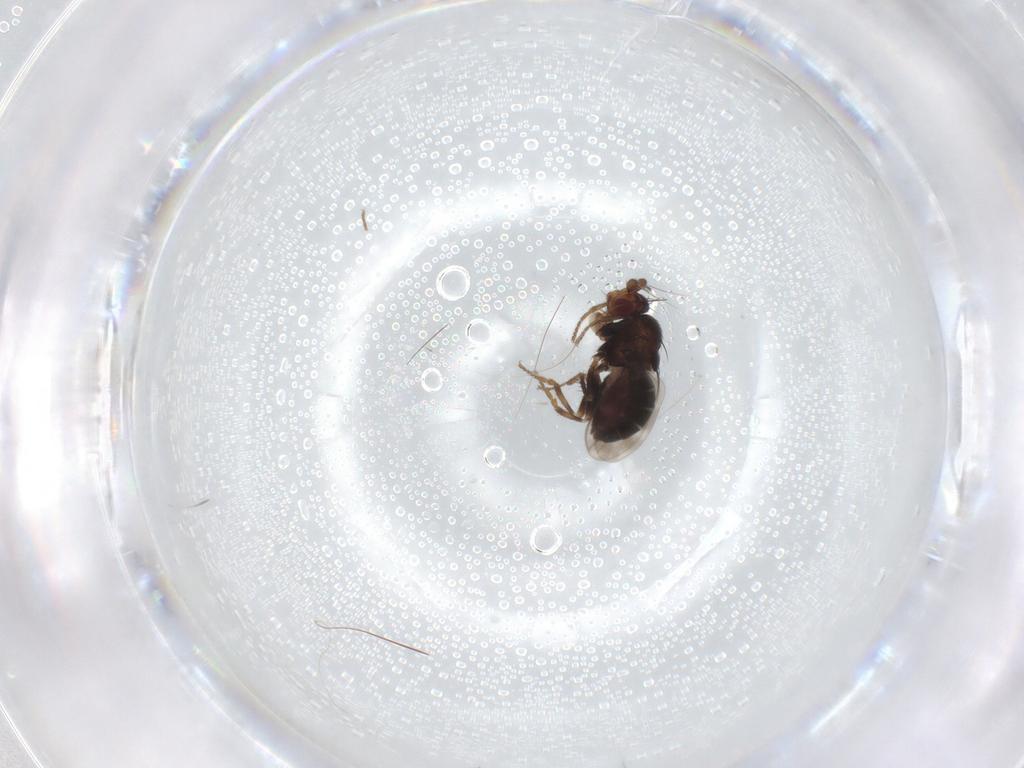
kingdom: Animalia
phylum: Arthropoda
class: Insecta
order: Diptera
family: Sphaeroceridae
